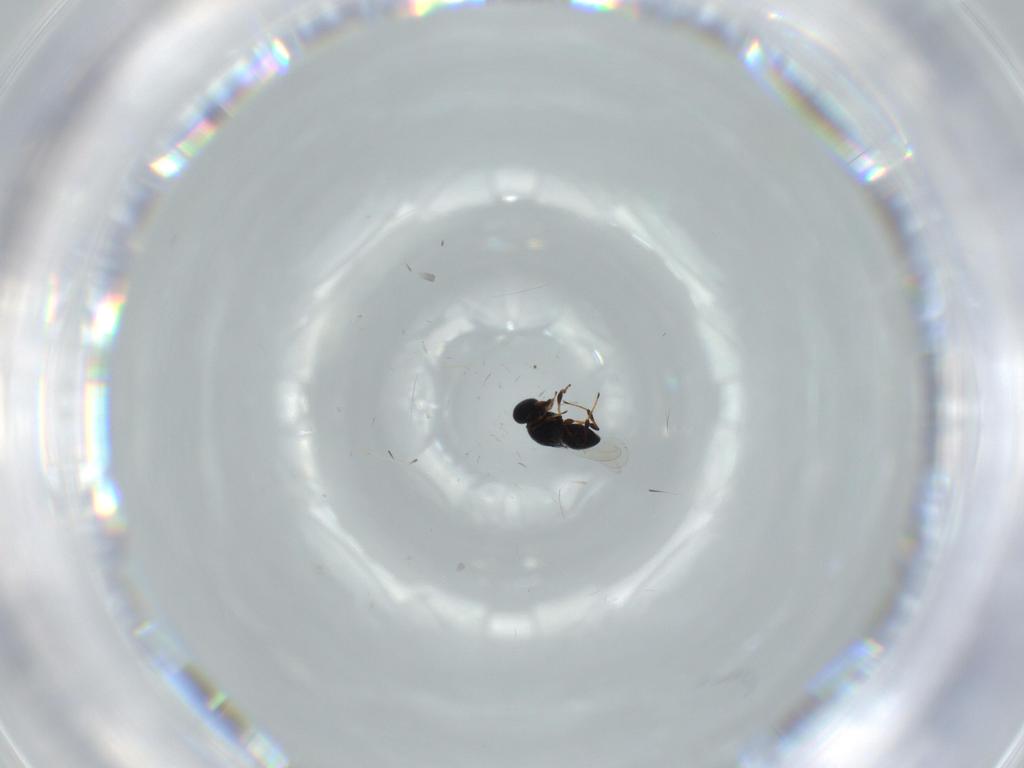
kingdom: Animalia
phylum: Arthropoda
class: Insecta
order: Hymenoptera
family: Platygastridae
